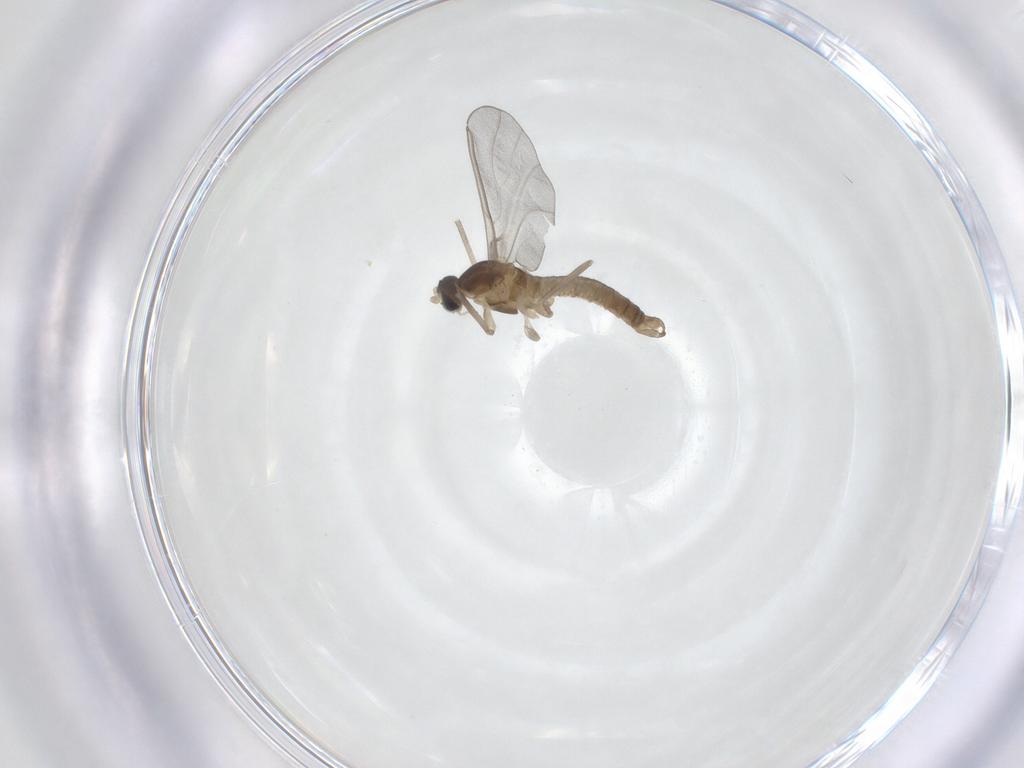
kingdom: Animalia
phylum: Arthropoda
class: Insecta
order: Diptera
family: Cecidomyiidae
